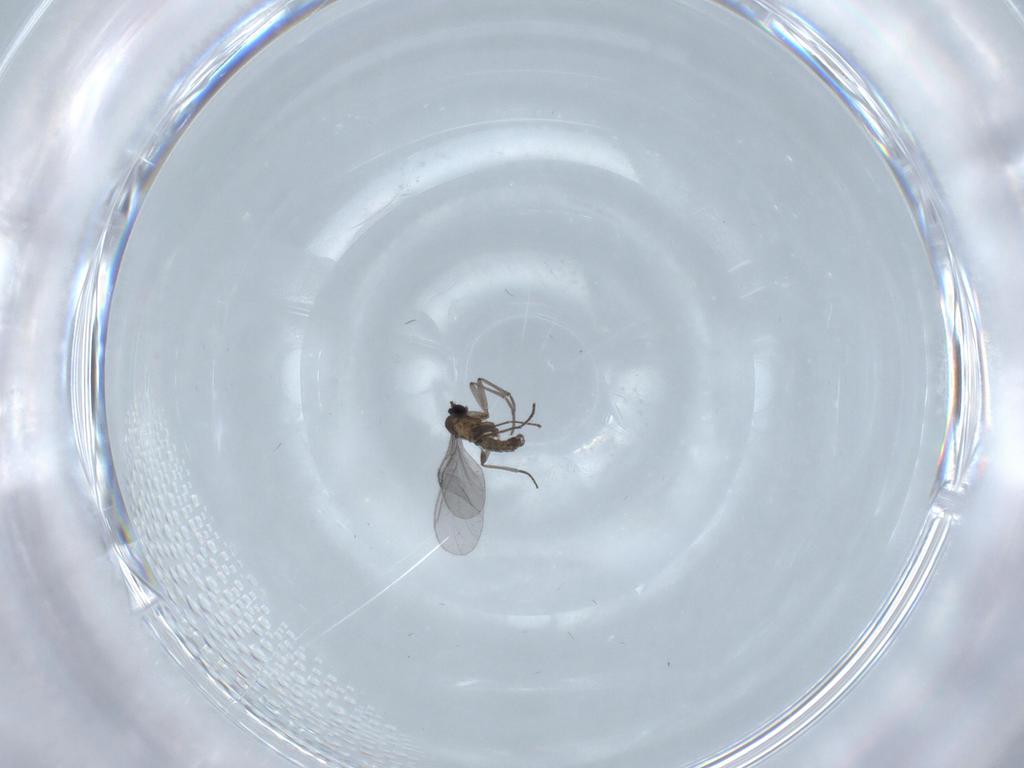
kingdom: Animalia
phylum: Arthropoda
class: Insecta
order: Diptera
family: Sciaridae
